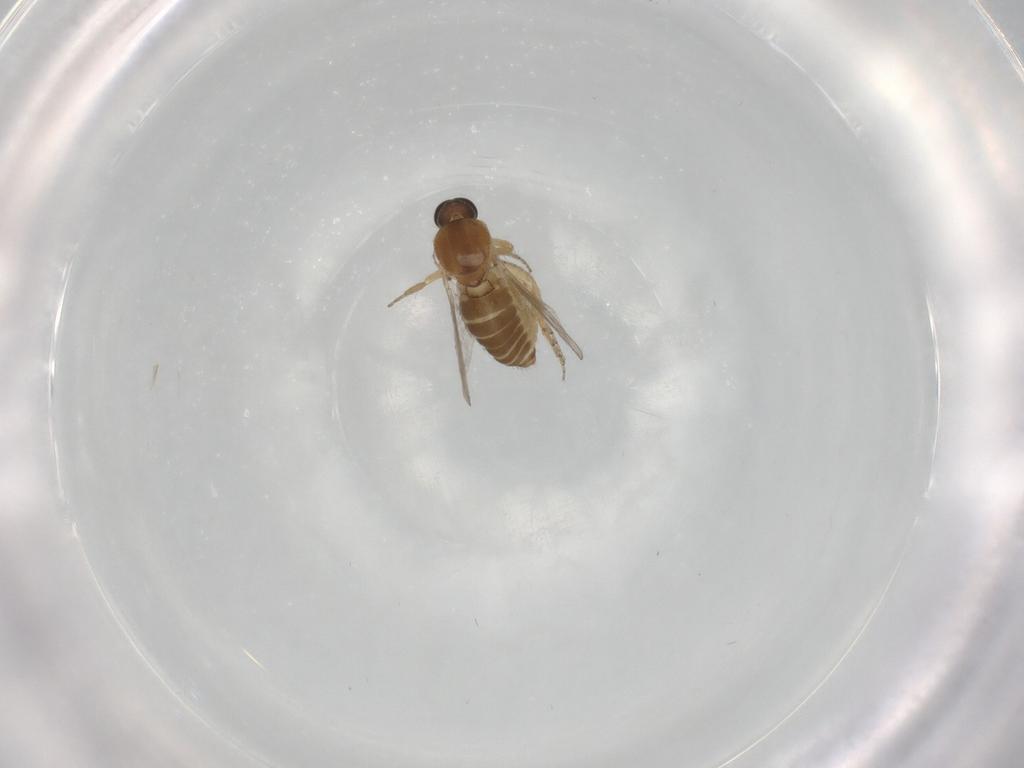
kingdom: Animalia
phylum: Arthropoda
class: Insecta
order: Diptera
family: Ceratopogonidae
